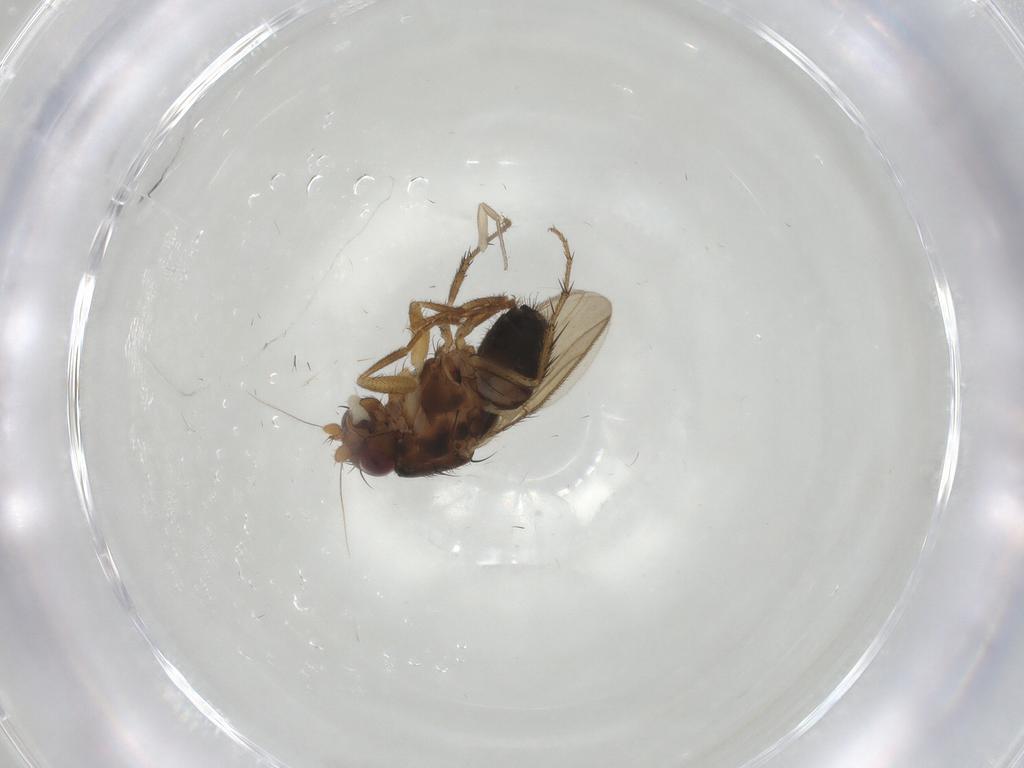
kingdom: Animalia
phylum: Arthropoda
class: Insecta
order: Diptera
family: Sphaeroceridae
